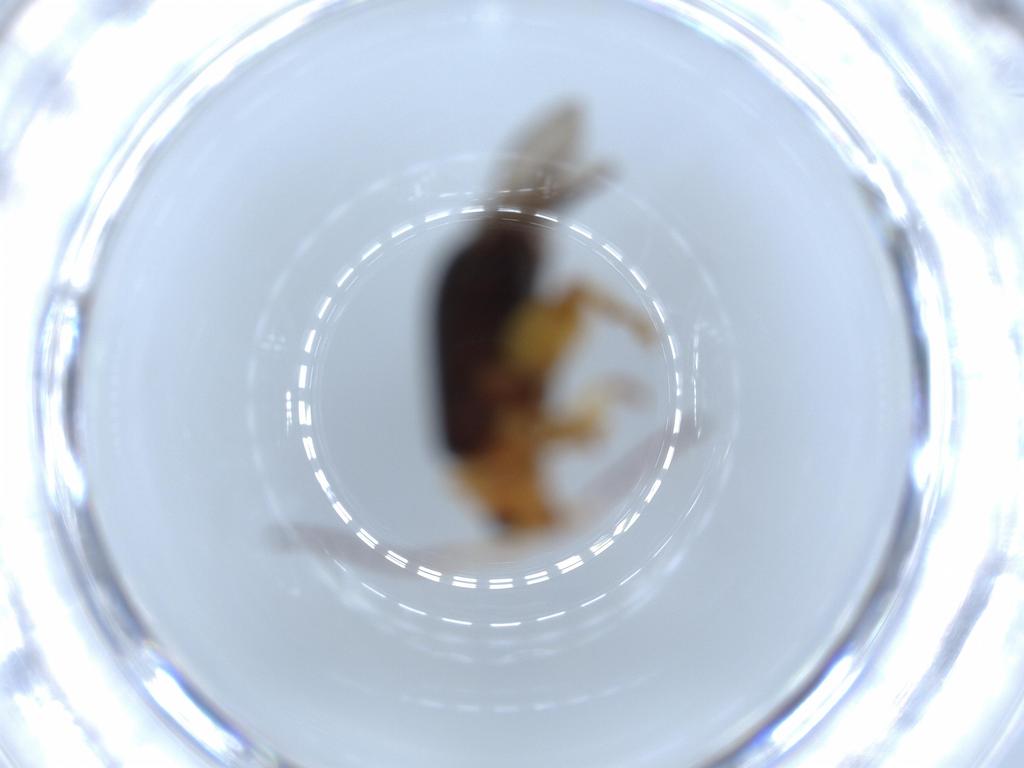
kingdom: Animalia
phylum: Arthropoda
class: Insecta
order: Coleoptera
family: Chrysomelidae
